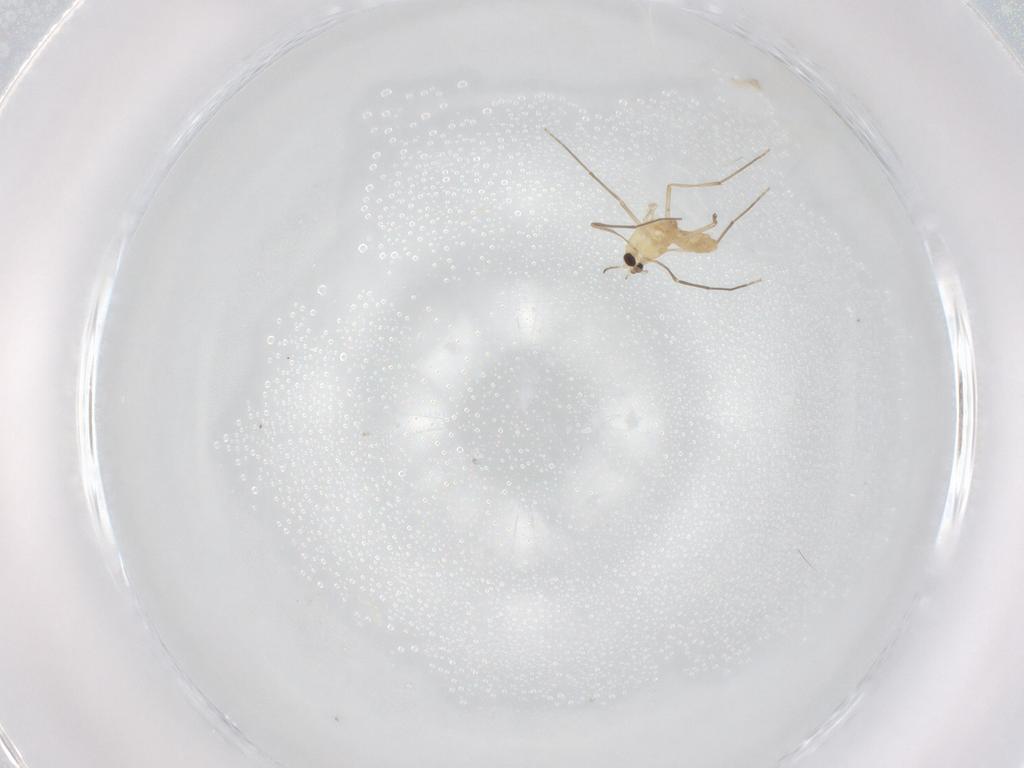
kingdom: Animalia
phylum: Arthropoda
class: Insecta
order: Diptera
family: Chironomidae
